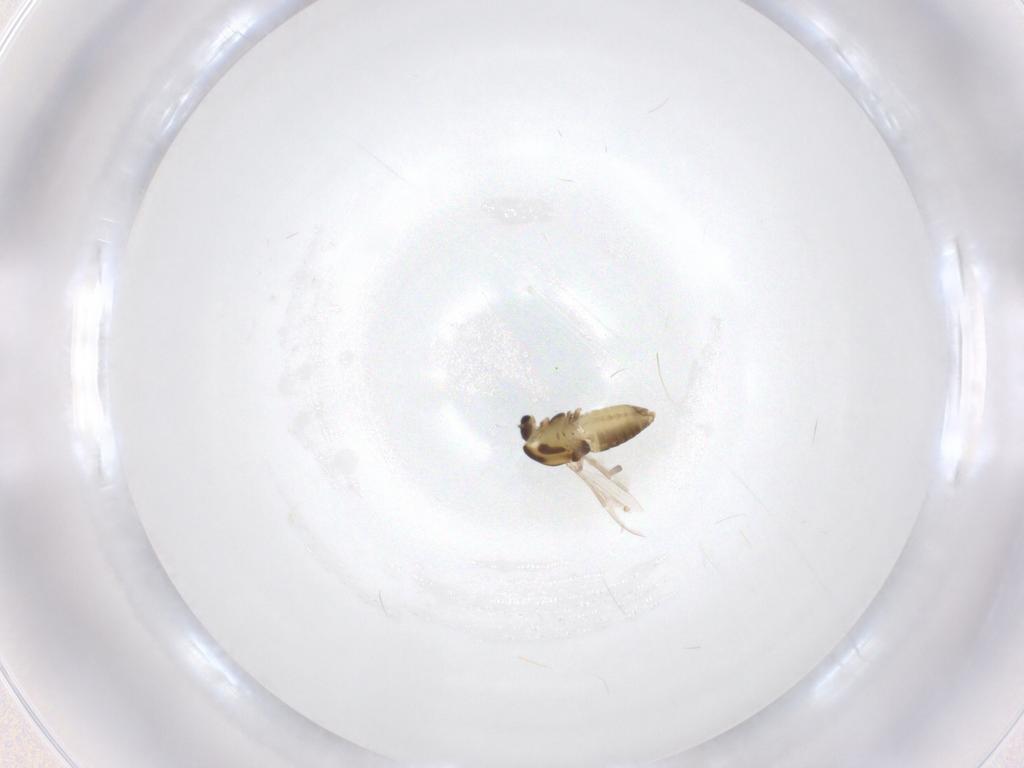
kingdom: Animalia
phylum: Arthropoda
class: Insecta
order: Diptera
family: Chironomidae
